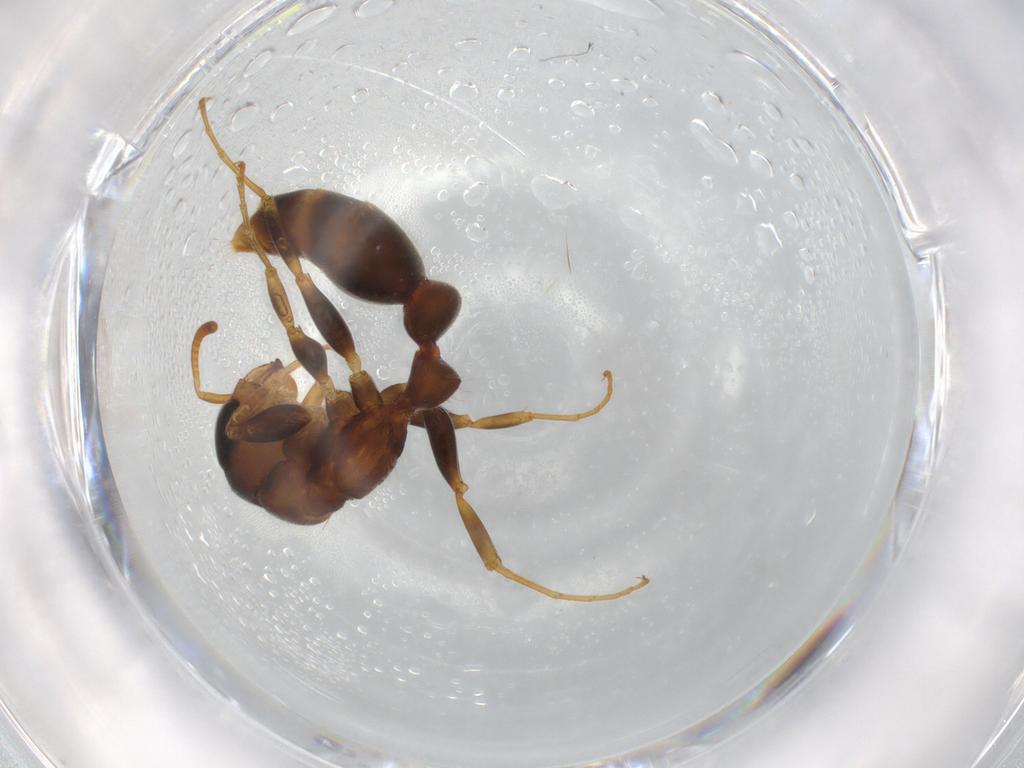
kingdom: Animalia
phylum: Arthropoda
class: Insecta
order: Hymenoptera
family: Formicidae
